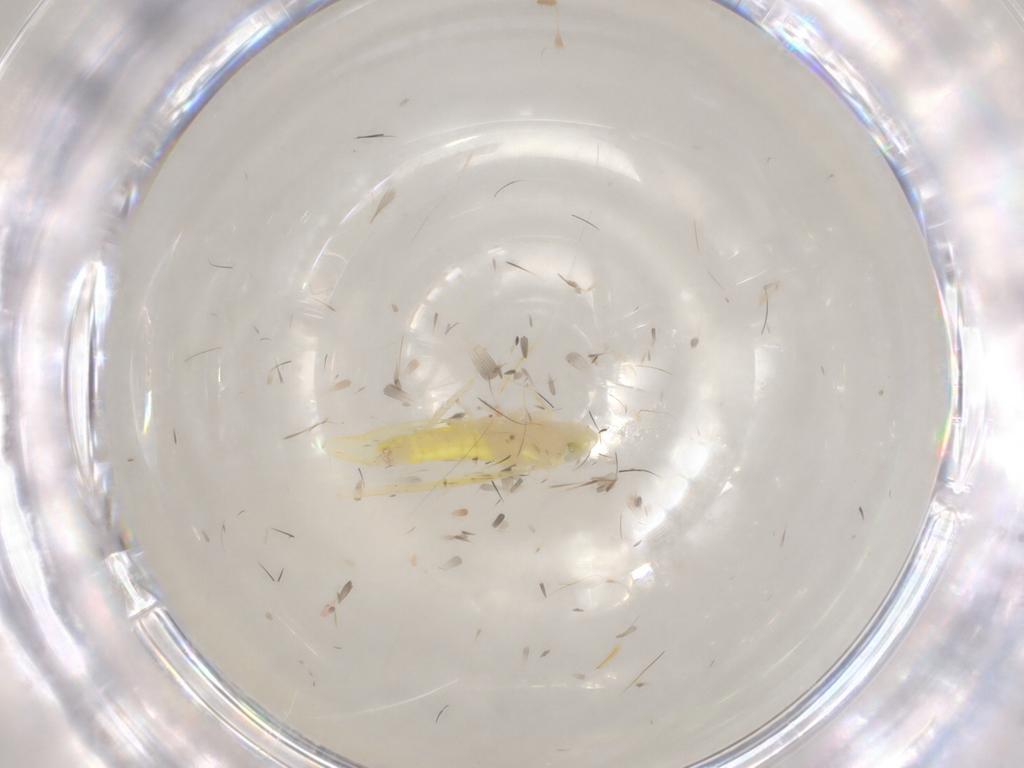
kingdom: Animalia
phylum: Arthropoda
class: Insecta
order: Hemiptera
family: Cicadellidae
